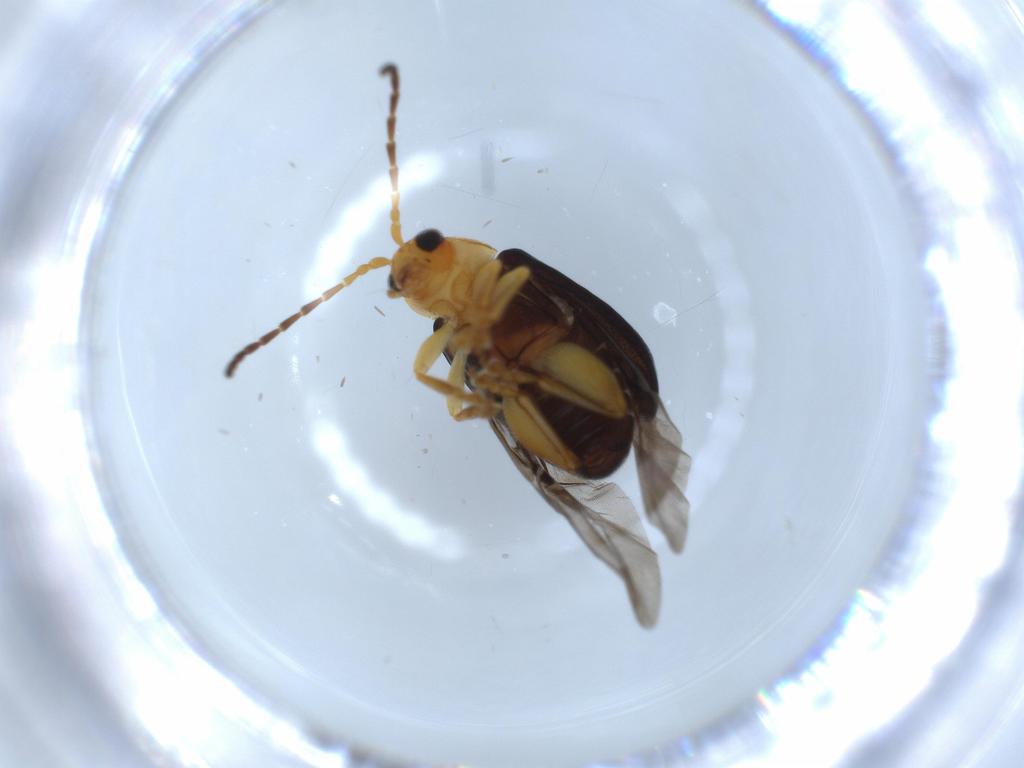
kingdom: Animalia
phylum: Arthropoda
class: Insecta
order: Coleoptera
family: Chrysomelidae
